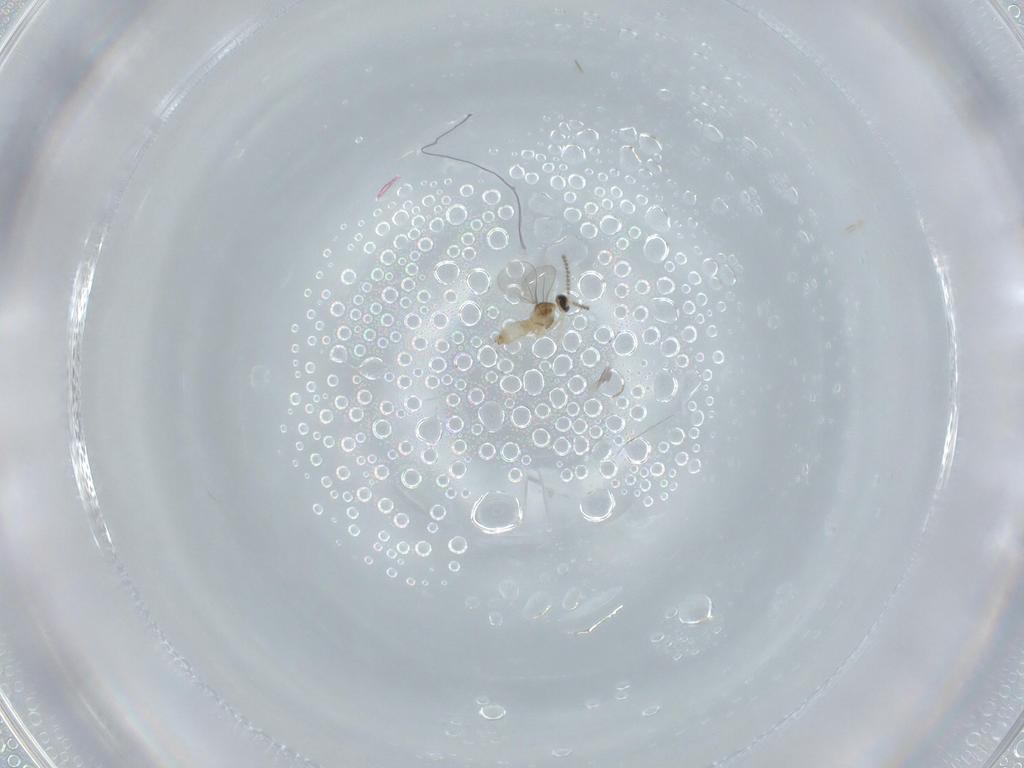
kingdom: Animalia
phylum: Arthropoda
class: Insecta
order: Diptera
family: Cecidomyiidae
